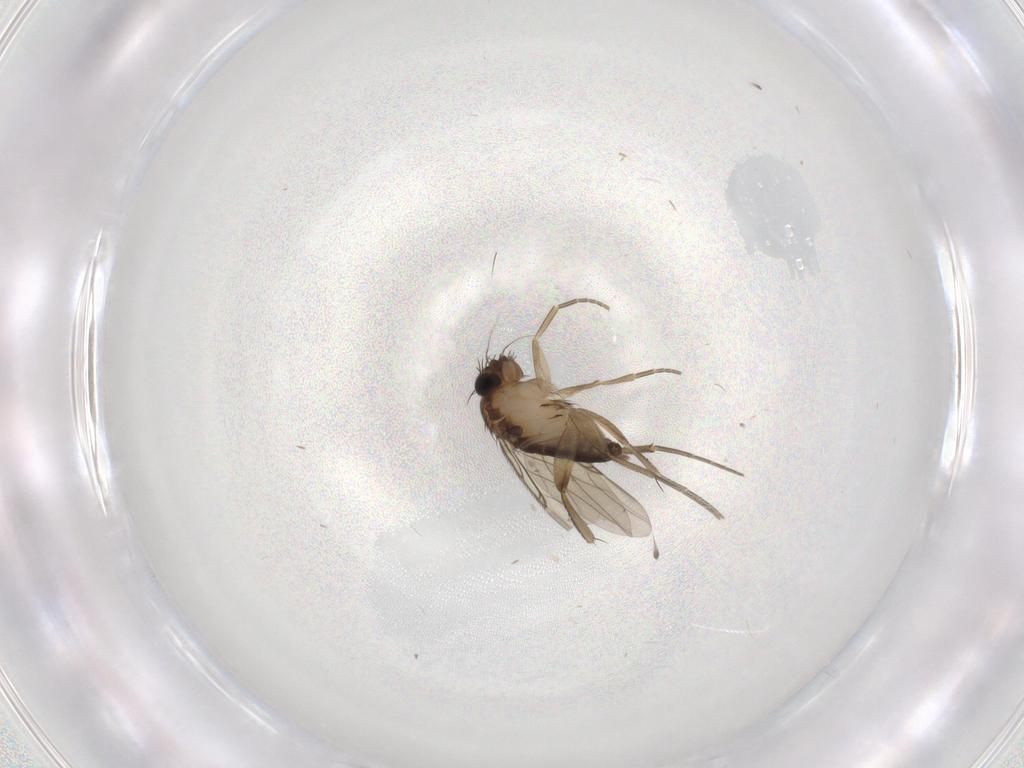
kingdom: Animalia
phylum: Arthropoda
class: Insecta
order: Diptera
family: Phoridae
